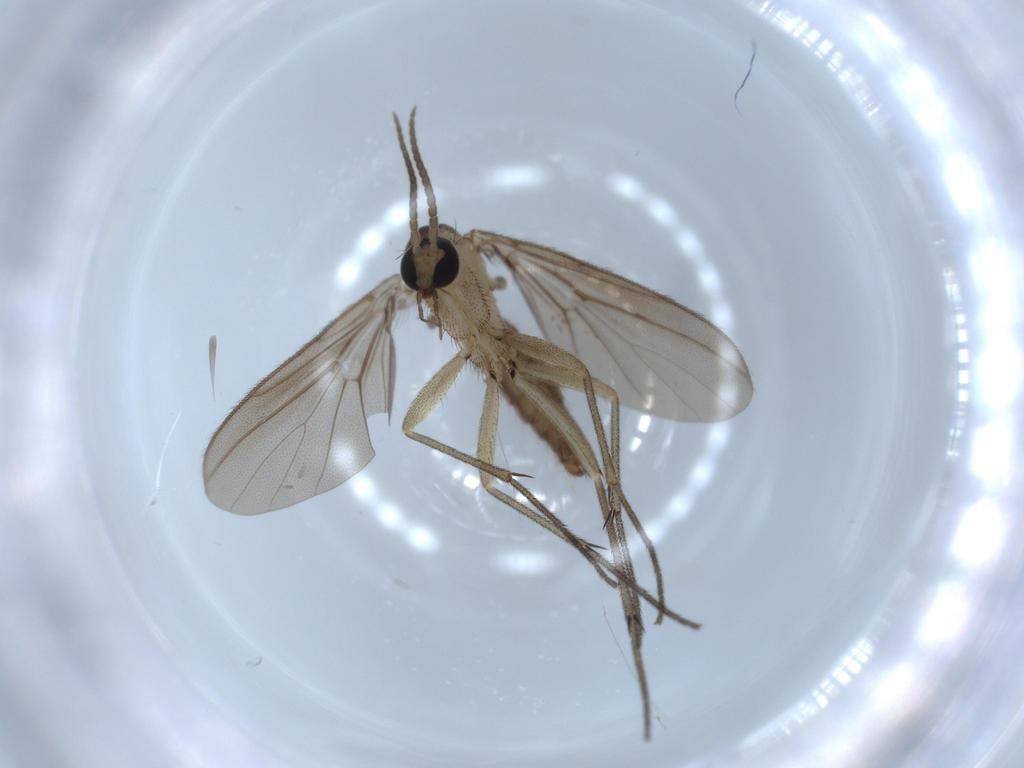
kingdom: Animalia
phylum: Arthropoda
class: Insecta
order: Diptera
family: Sciaridae
